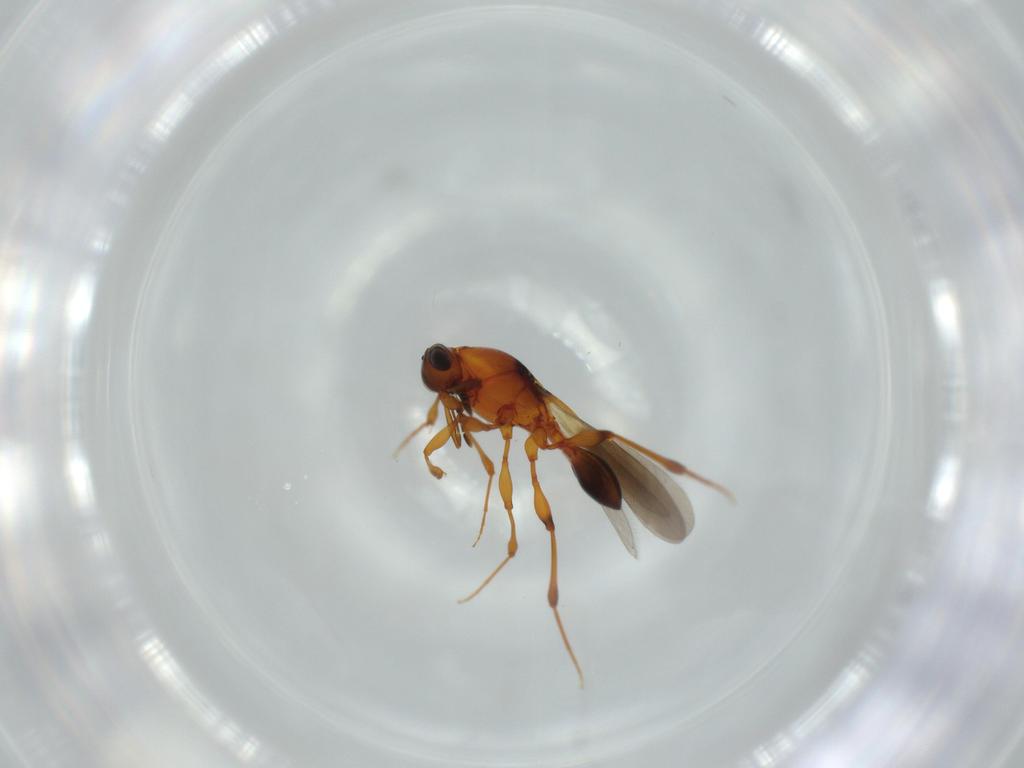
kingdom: Animalia
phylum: Arthropoda
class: Insecta
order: Hymenoptera
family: Platygastridae
